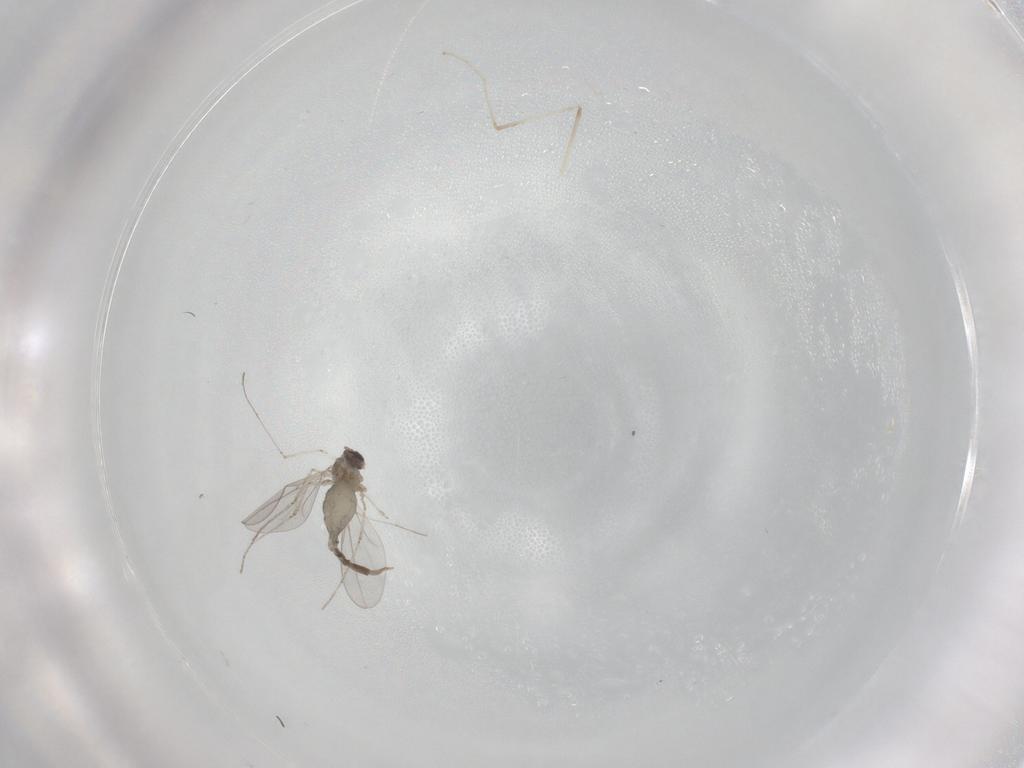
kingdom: Animalia
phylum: Arthropoda
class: Insecta
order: Diptera
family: Cecidomyiidae
